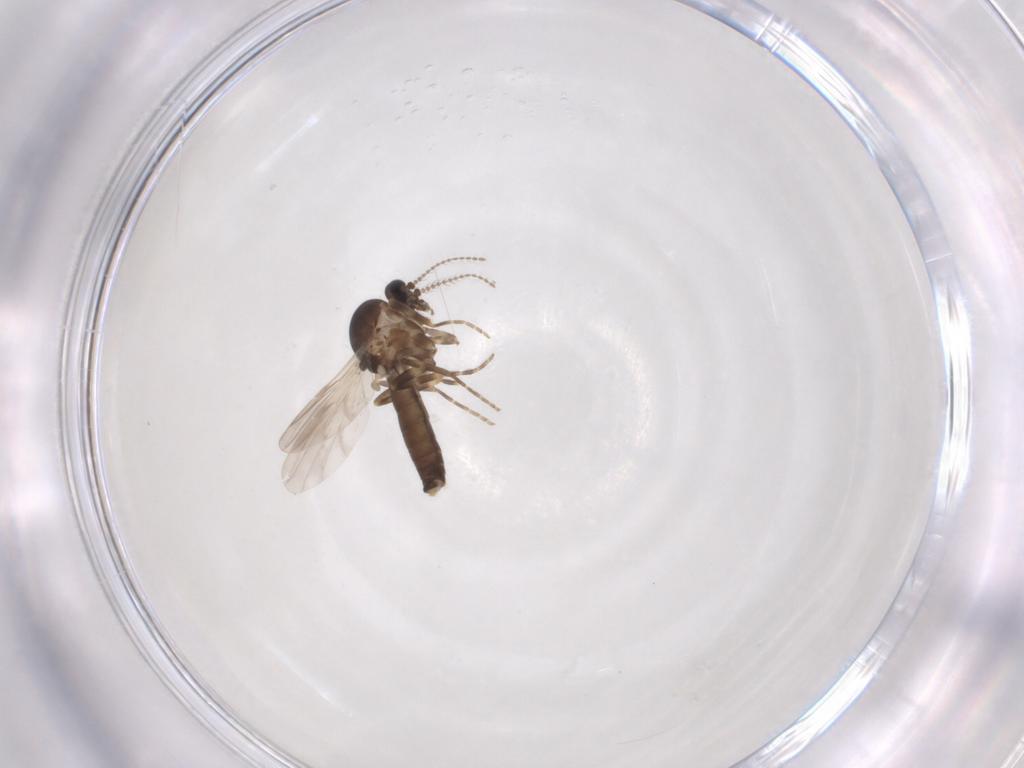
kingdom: Animalia
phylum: Arthropoda
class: Insecta
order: Diptera
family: Ceratopogonidae
